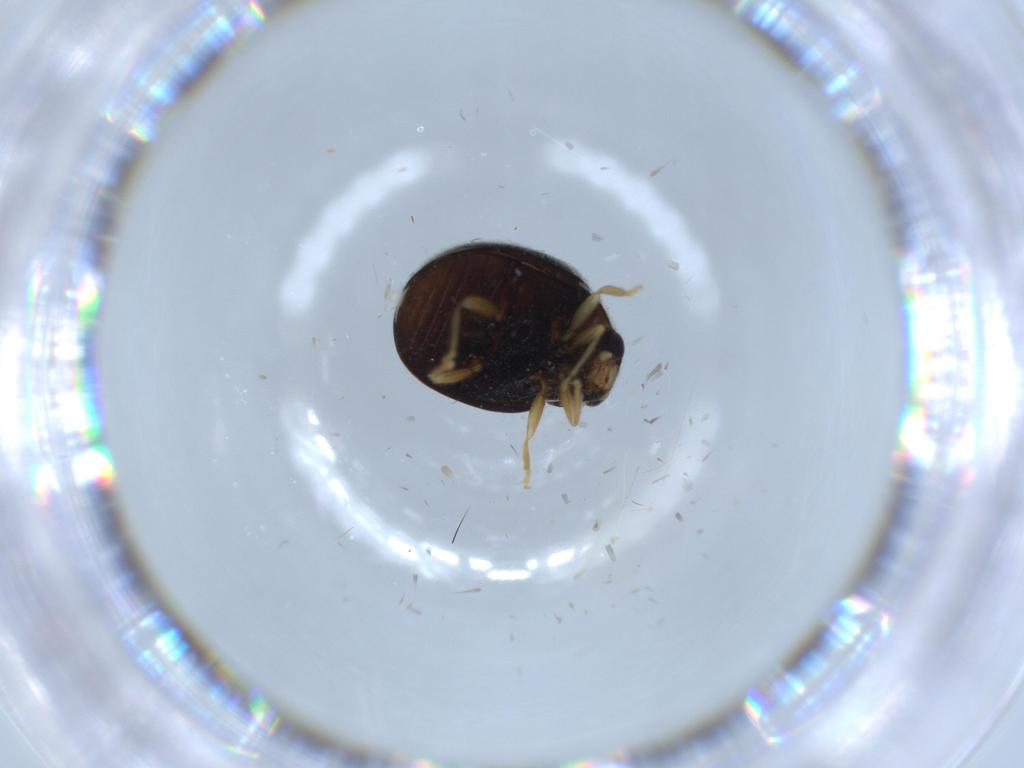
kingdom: Animalia
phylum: Arthropoda
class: Insecta
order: Coleoptera
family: Coccinellidae
